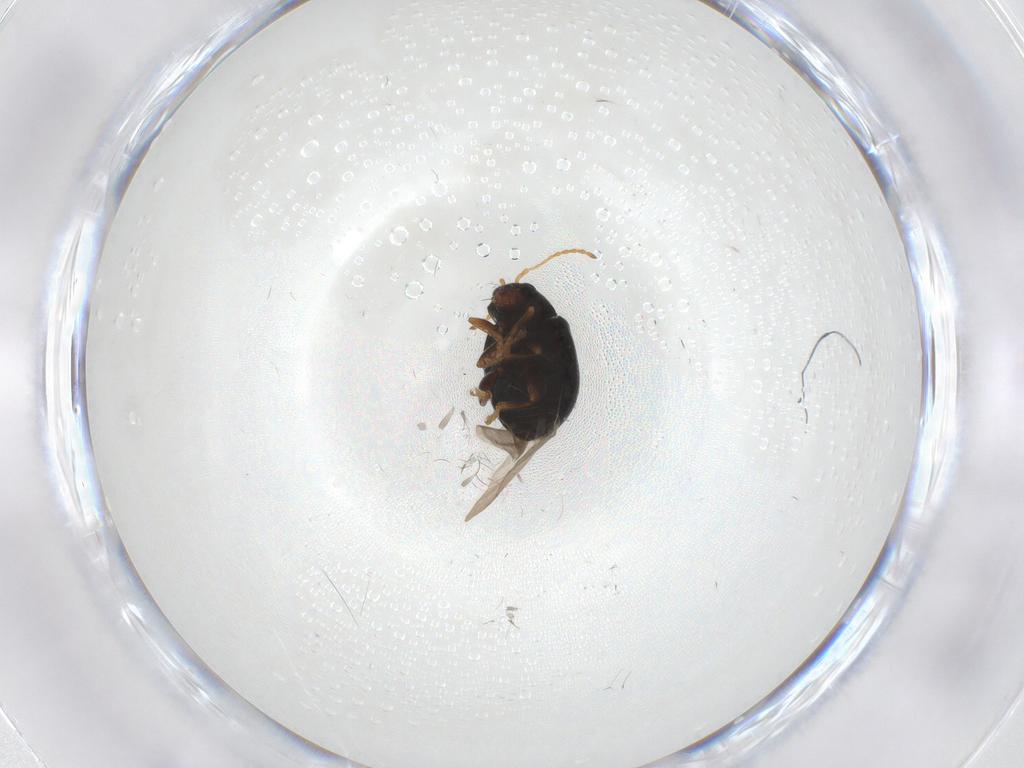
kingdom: Animalia
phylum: Arthropoda
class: Insecta
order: Coleoptera
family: Chrysomelidae
